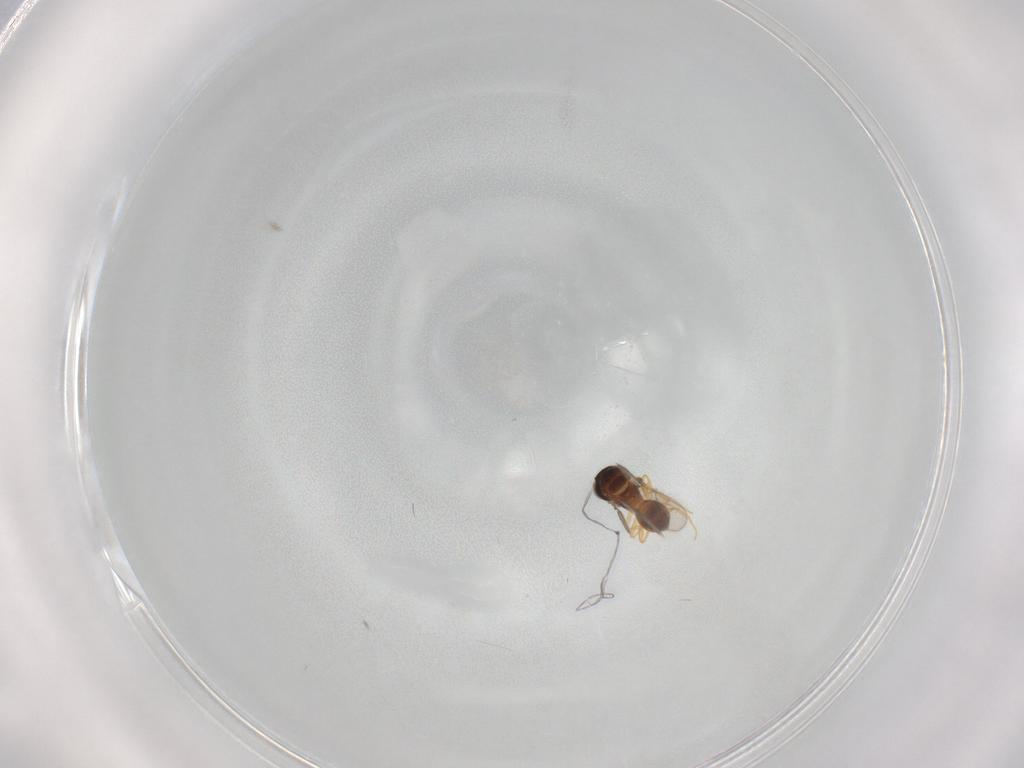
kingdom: Animalia
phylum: Arthropoda
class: Insecta
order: Hymenoptera
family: Scelionidae
